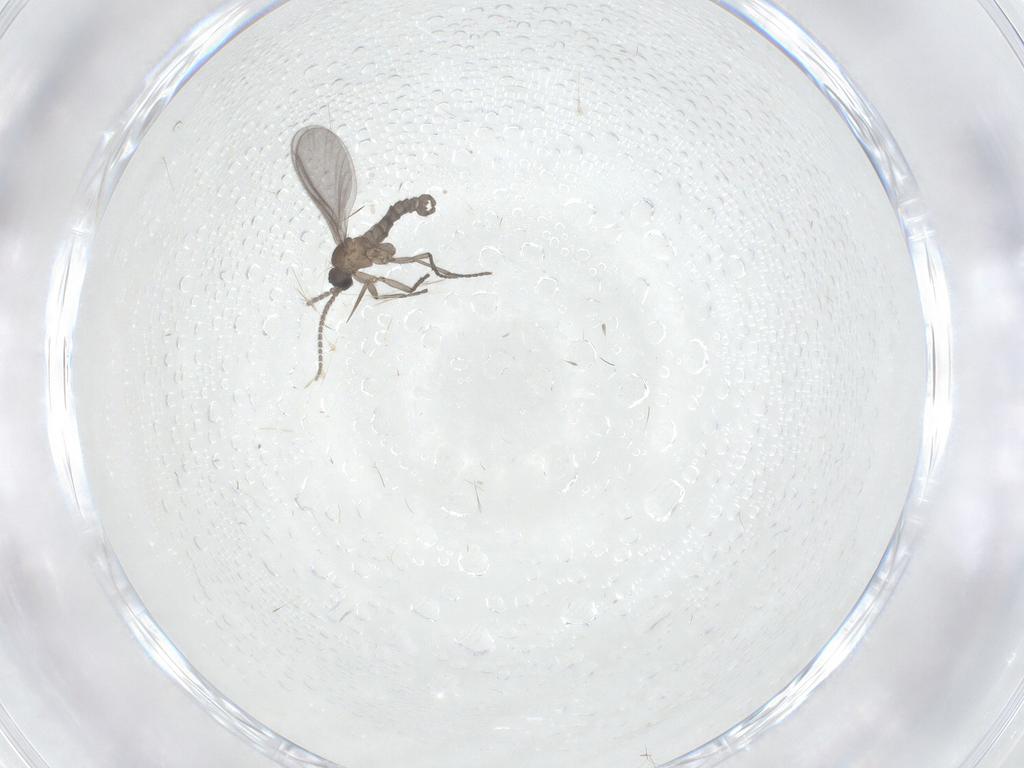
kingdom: Animalia
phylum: Arthropoda
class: Insecta
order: Diptera
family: Sciaridae
